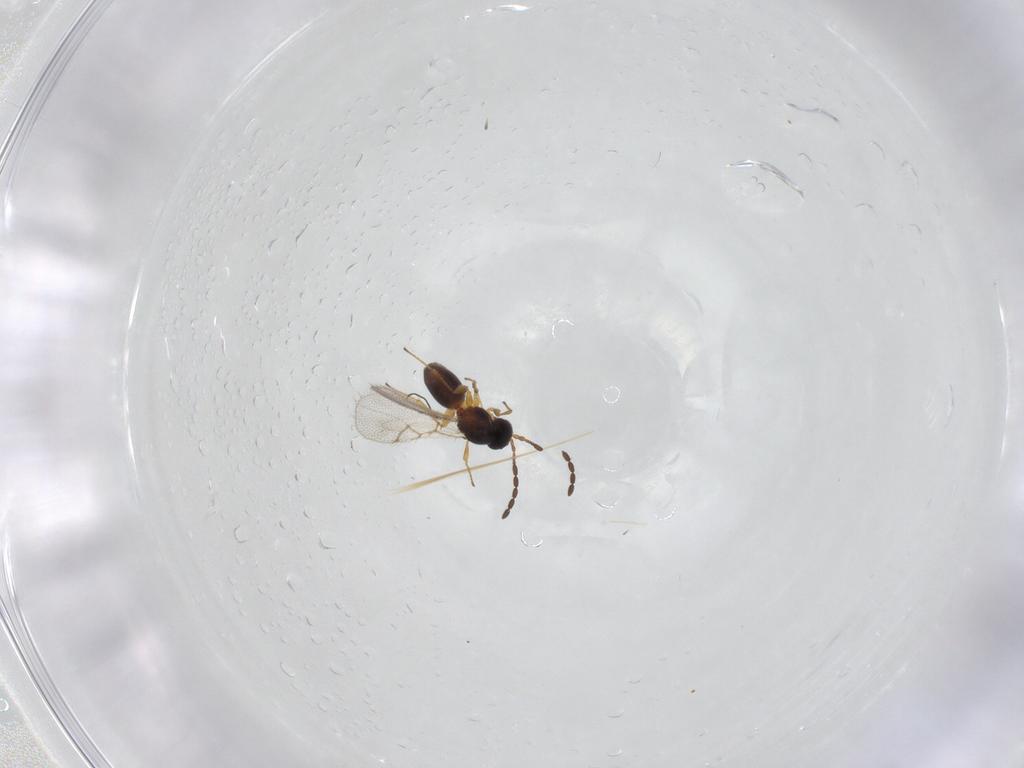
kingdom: Animalia
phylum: Arthropoda
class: Insecta
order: Hymenoptera
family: Figitidae
